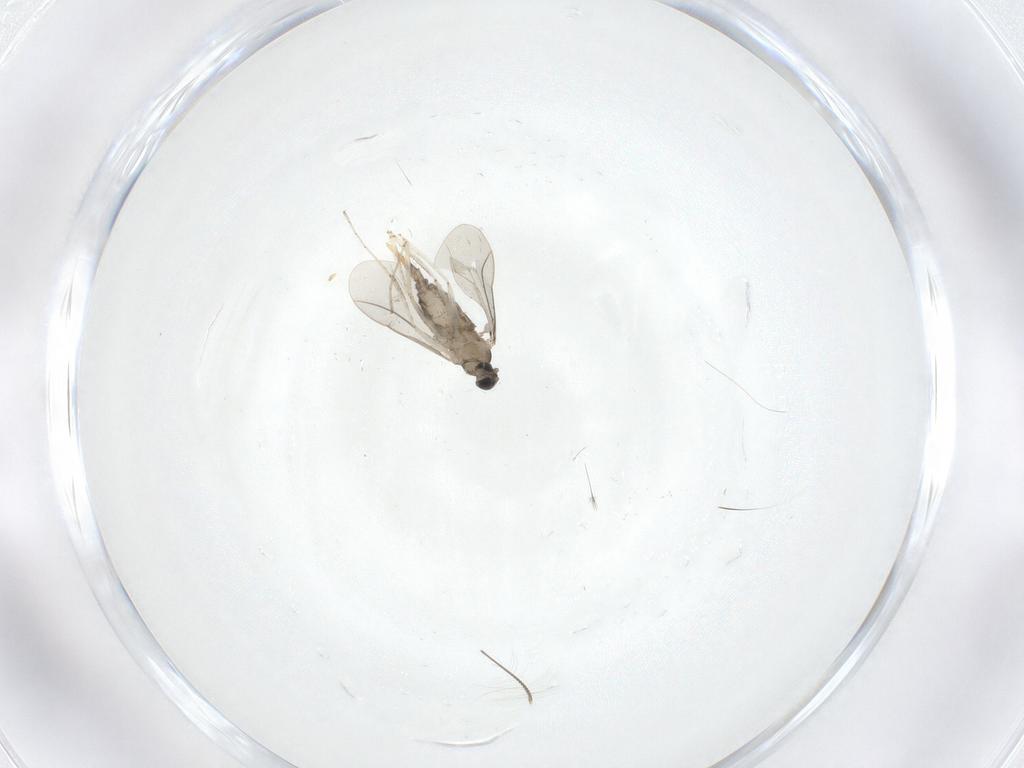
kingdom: Animalia
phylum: Arthropoda
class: Insecta
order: Diptera
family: Cecidomyiidae
